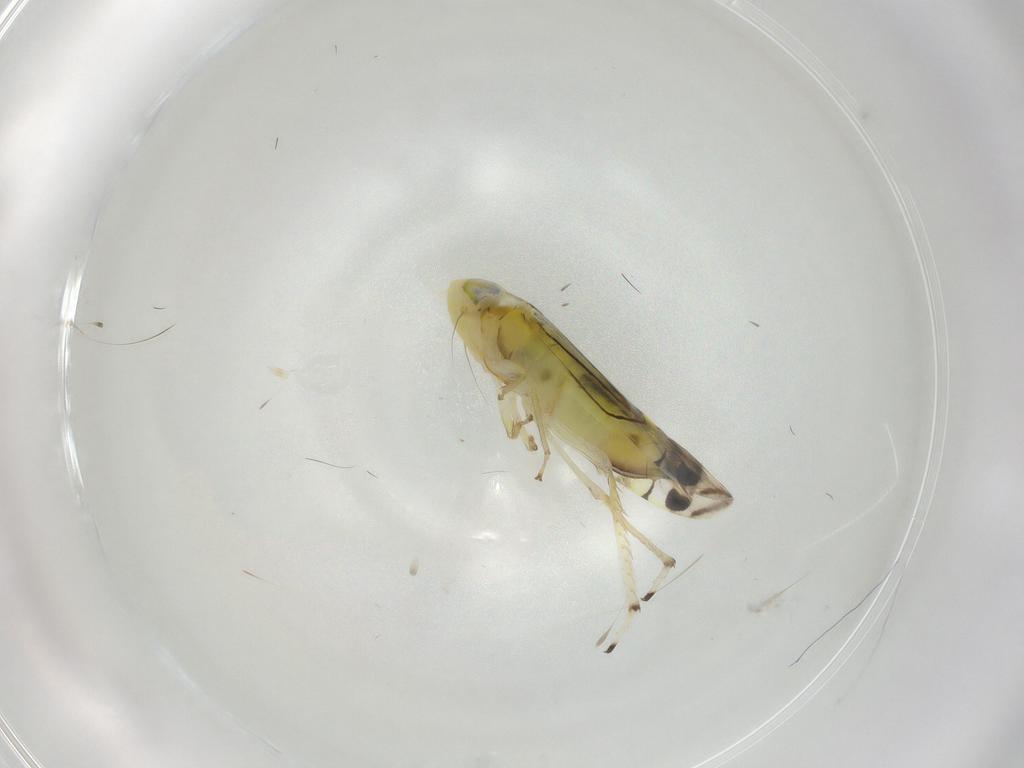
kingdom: Animalia
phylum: Arthropoda
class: Insecta
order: Hemiptera
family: Cicadellidae
